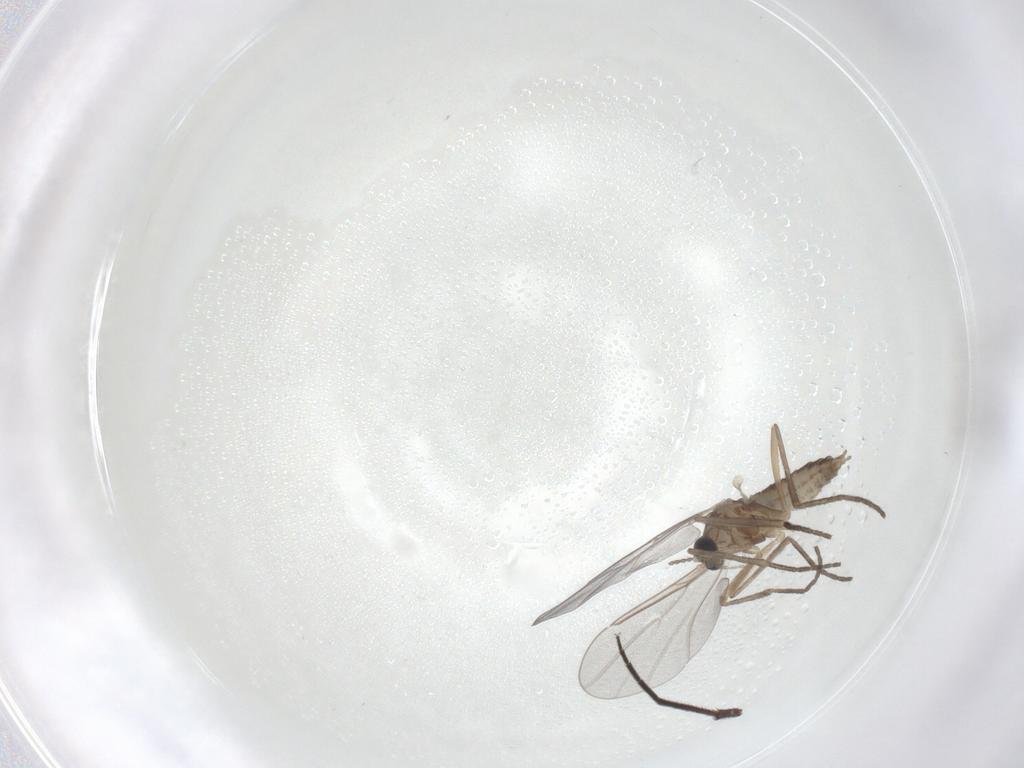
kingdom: Animalia
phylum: Arthropoda
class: Insecta
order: Diptera
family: Cecidomyiidae
